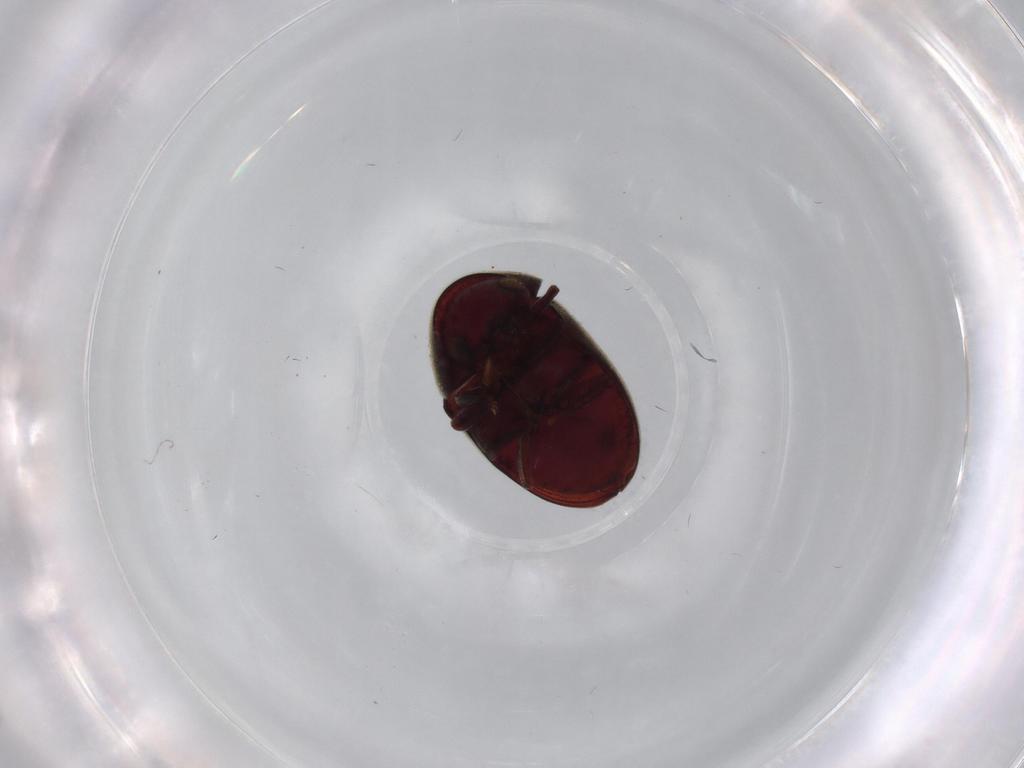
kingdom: Animalia
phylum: Arthropoda
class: Insecta
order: Coleoptera
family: Ptinidae
